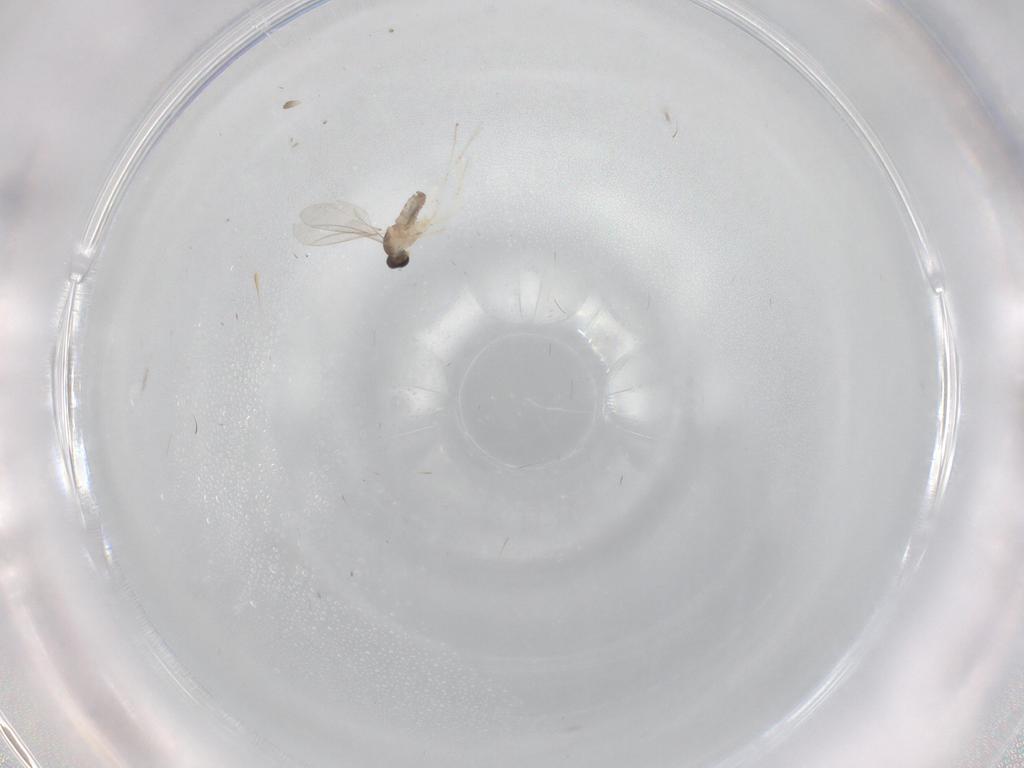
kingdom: Animalia
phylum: Arthropoda
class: Insecta
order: Diptera
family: Cecidomyiidae
